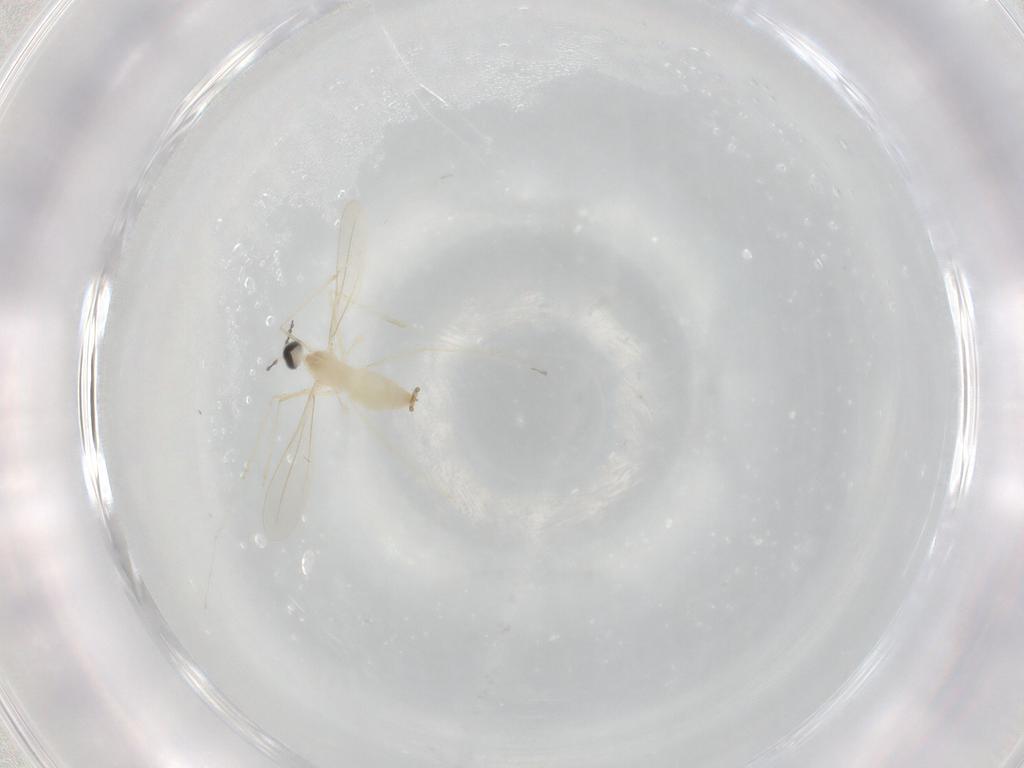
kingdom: Animalia
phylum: Arthropoda
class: Insecta
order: Diptera
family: Cecidomyiidae
